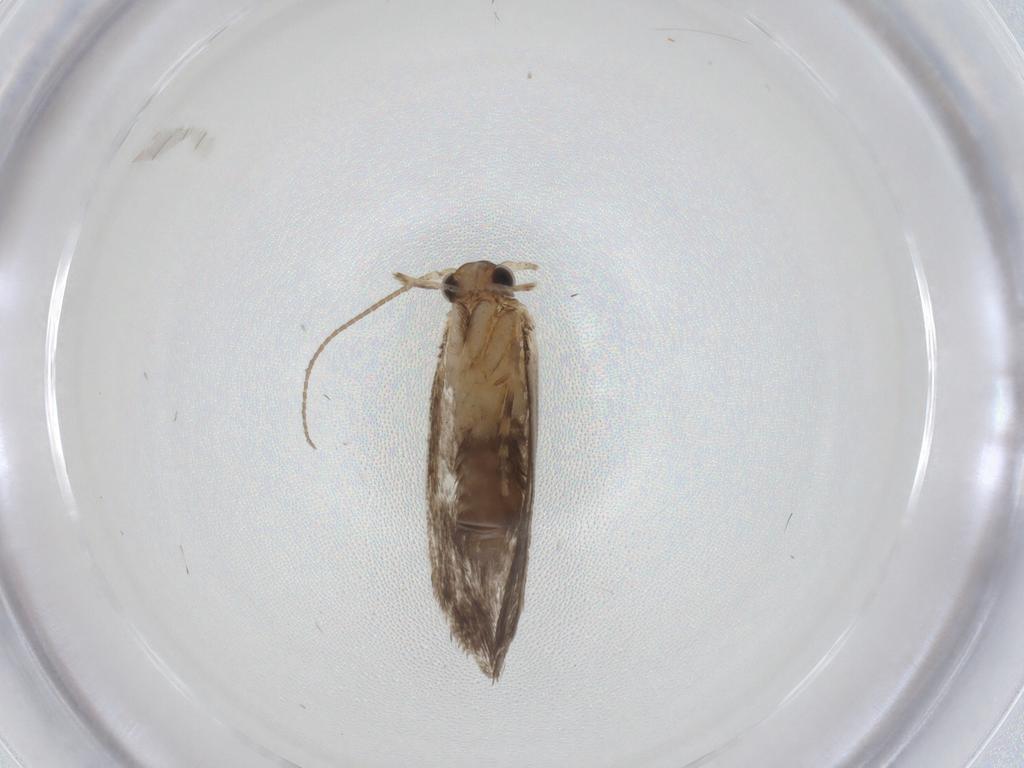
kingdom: Animalia
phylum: Arthropoda
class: Insecta
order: Lepidoptera
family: Dryadaulidae
